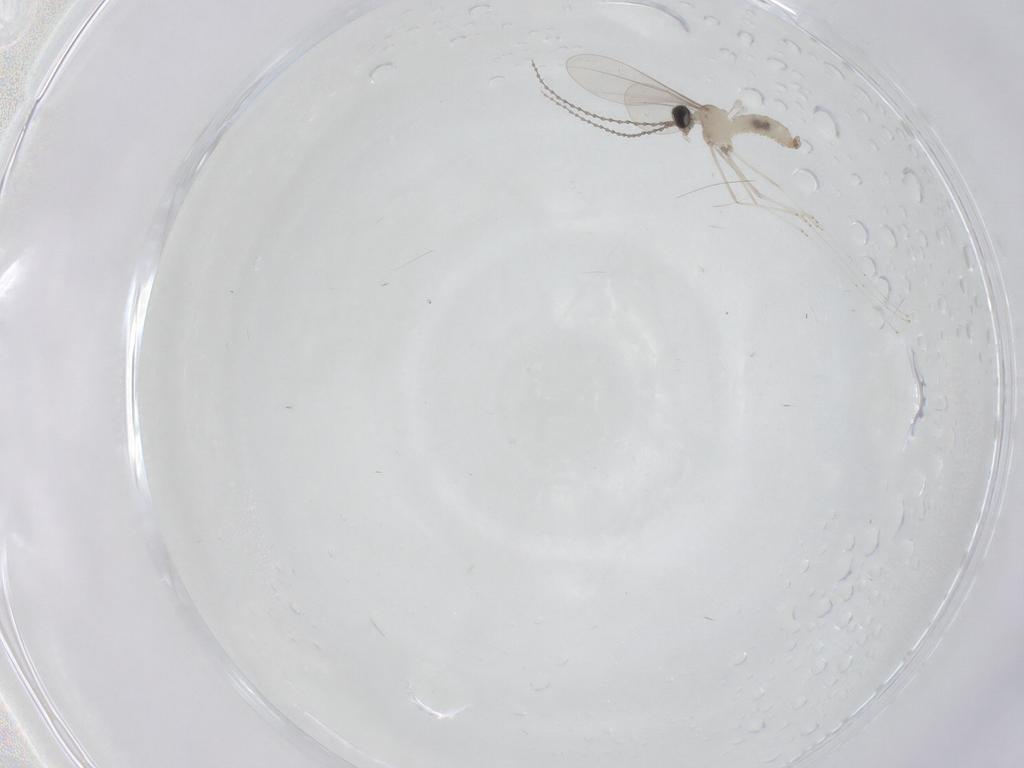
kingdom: Animalia
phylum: Arthropoda
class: Insecta
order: Diptera
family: Cecidomyiidae
